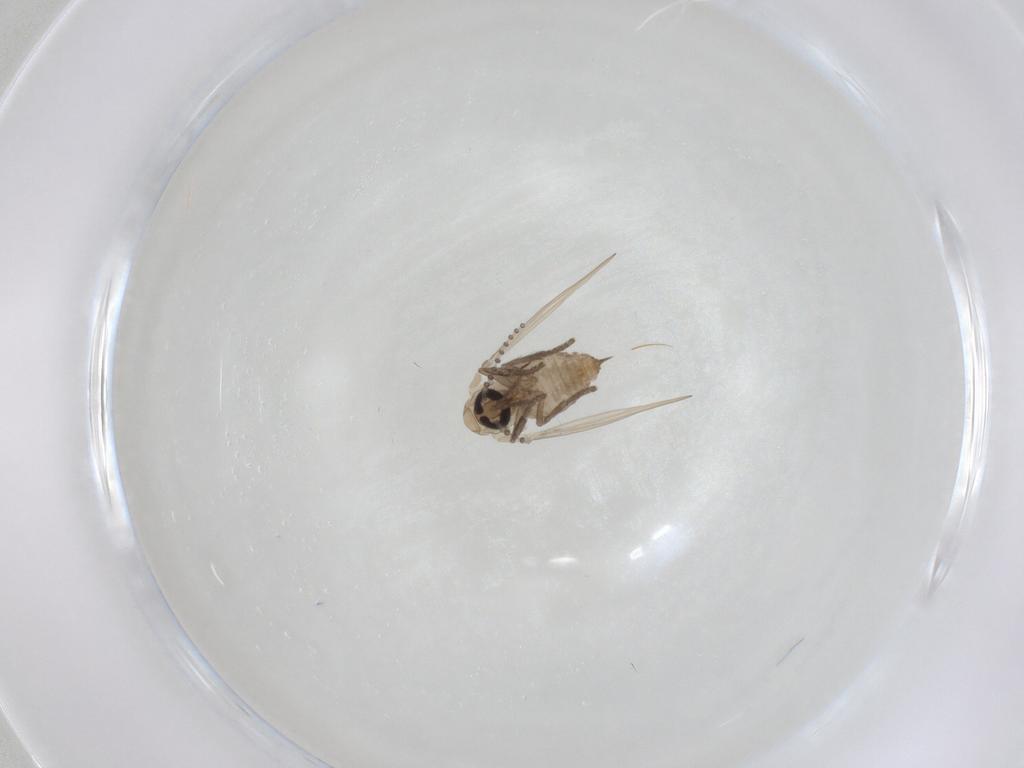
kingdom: Animalia
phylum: Arthropoda
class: Insecta
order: Diptera
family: Psychodidae
